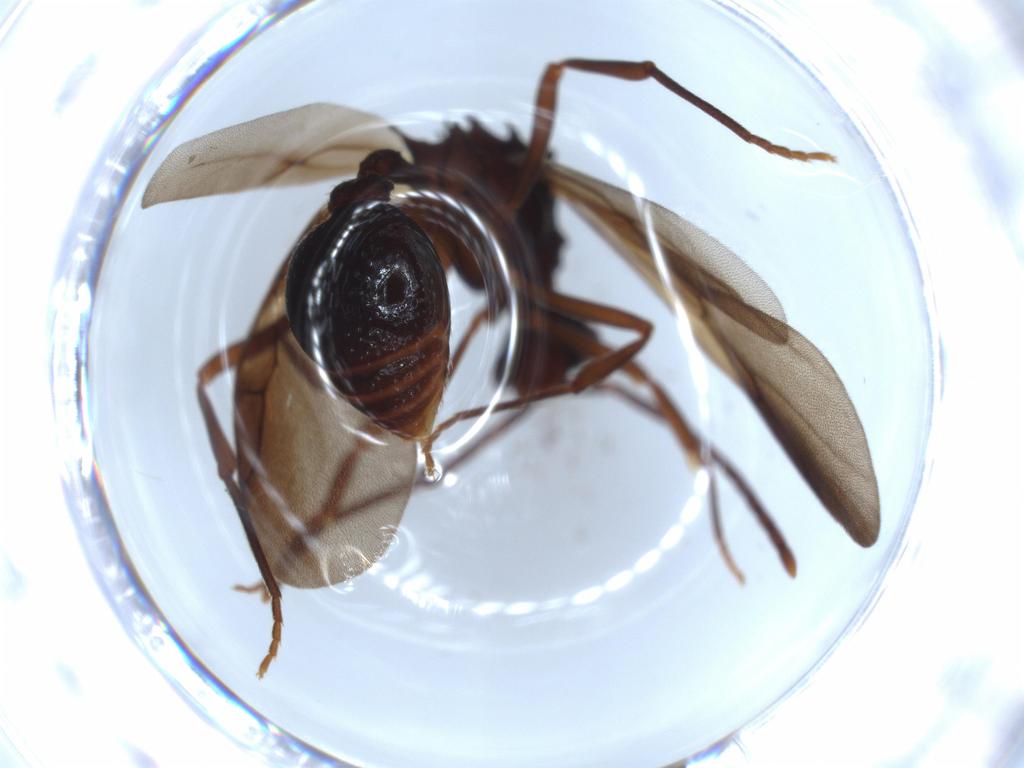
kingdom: Animalia
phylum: Arthropoda
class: Insecta
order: Hymenoptera
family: Formicidae
